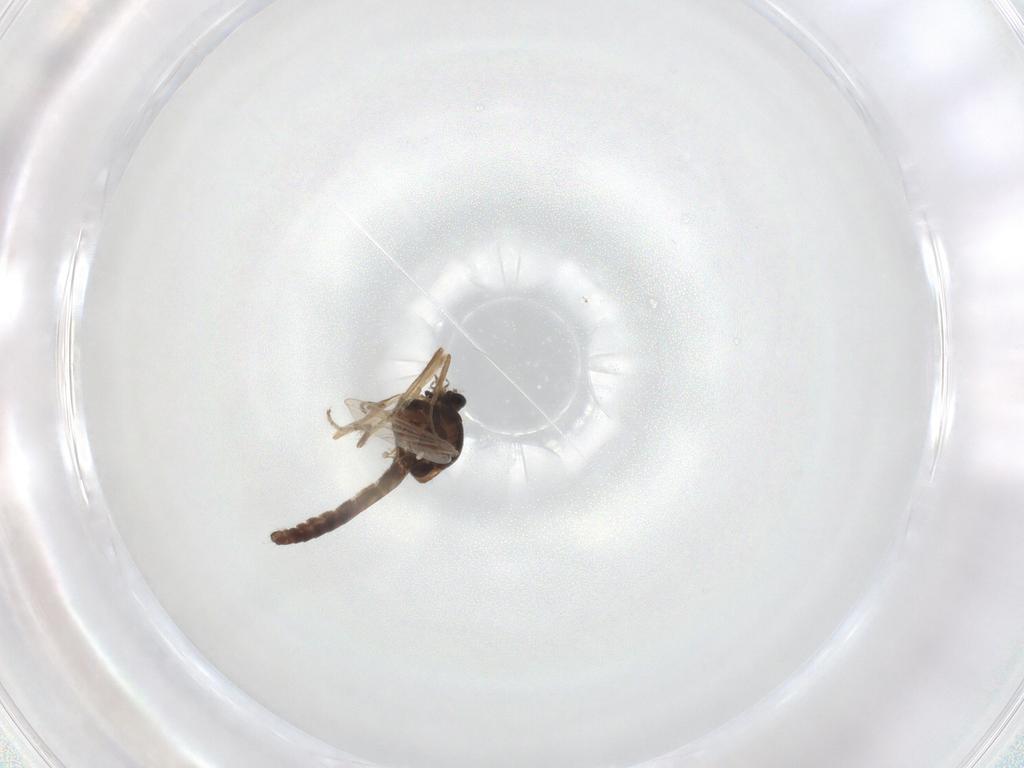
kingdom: Animalia
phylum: Arthropoda
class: Insecta
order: Diptera
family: Ceratopogonidae
